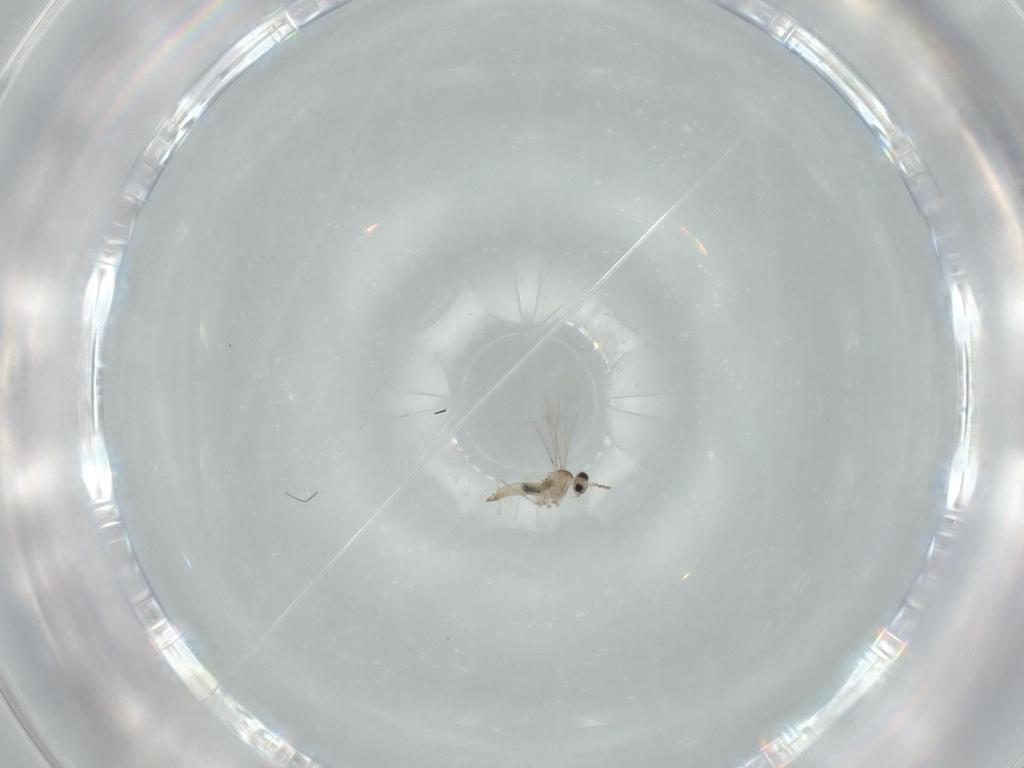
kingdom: Animalia
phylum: Arthropoda
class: Insecta
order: Diptera
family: Cecidomyiidae
